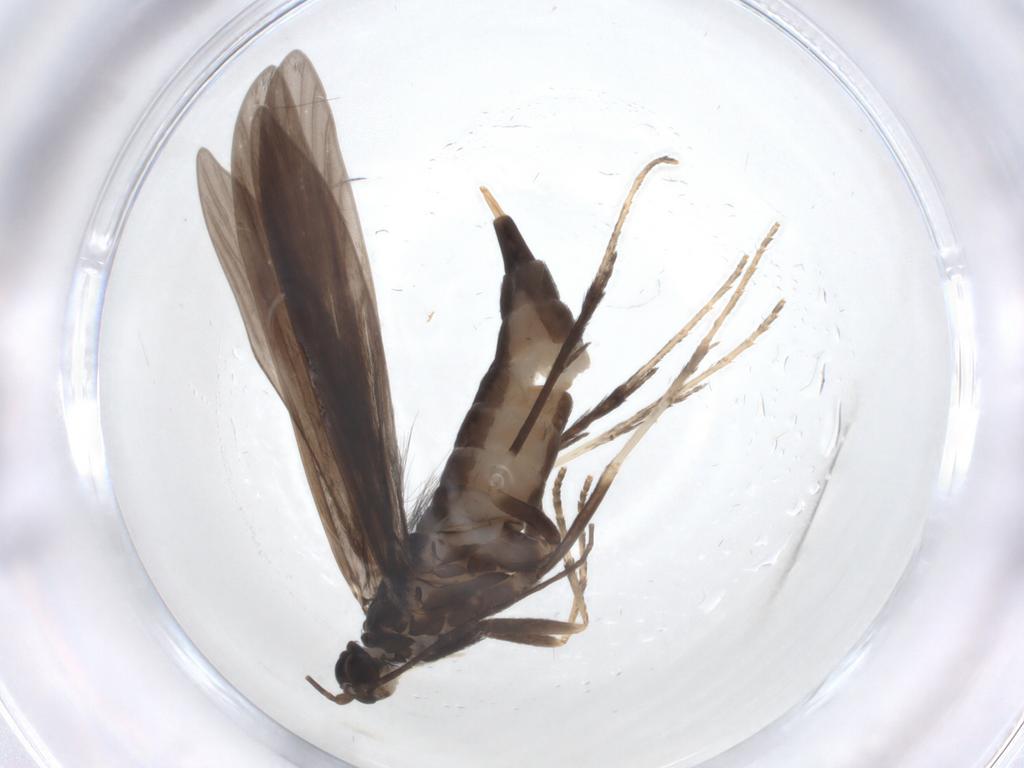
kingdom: Animalia
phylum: Arthropoda
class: Insecta
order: Trichoptera
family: Xiphocentronidae
